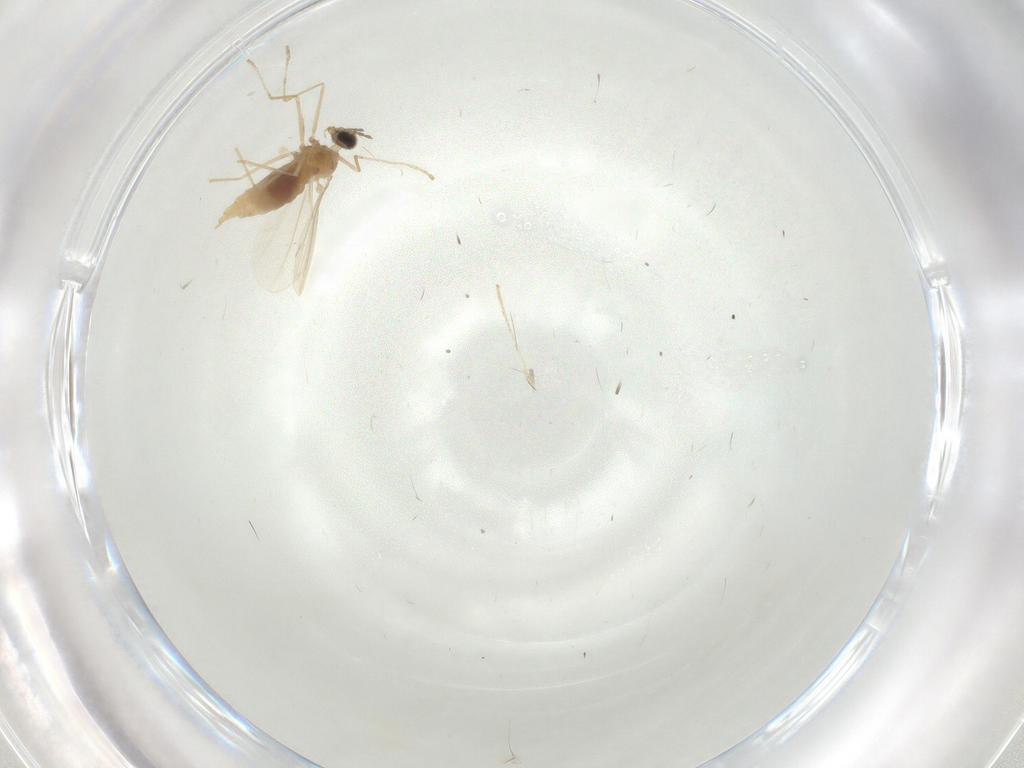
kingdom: Animalia
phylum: Arthropoda
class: Insecta
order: Diptera
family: Cecidomyiidae
